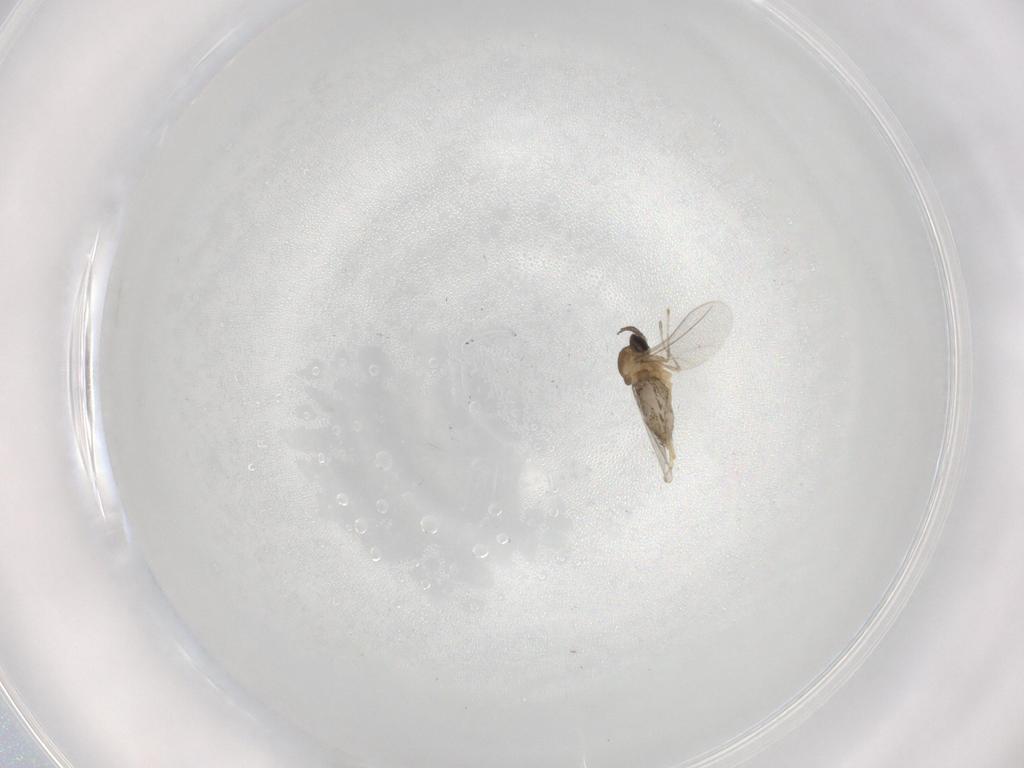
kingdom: Animalia
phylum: Arthropoda
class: Insecta
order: Diptera
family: Cecidomyiidae
